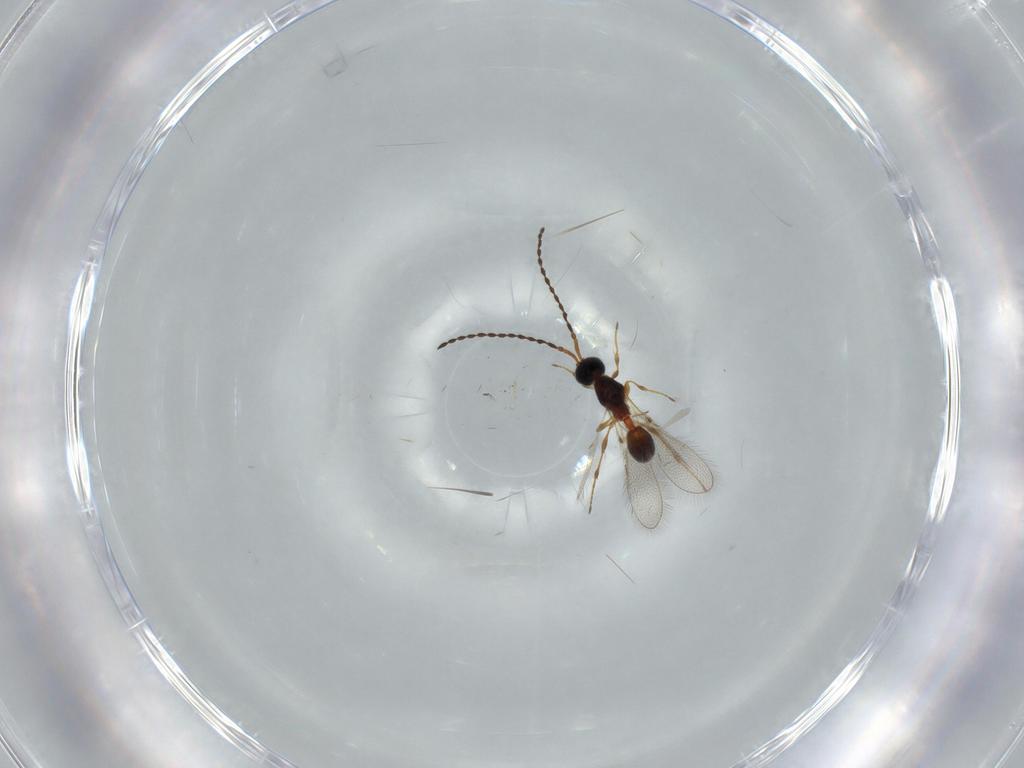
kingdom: Animalia
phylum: Arthropoda
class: Insecta
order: Hymenoptera
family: Diapriidae
